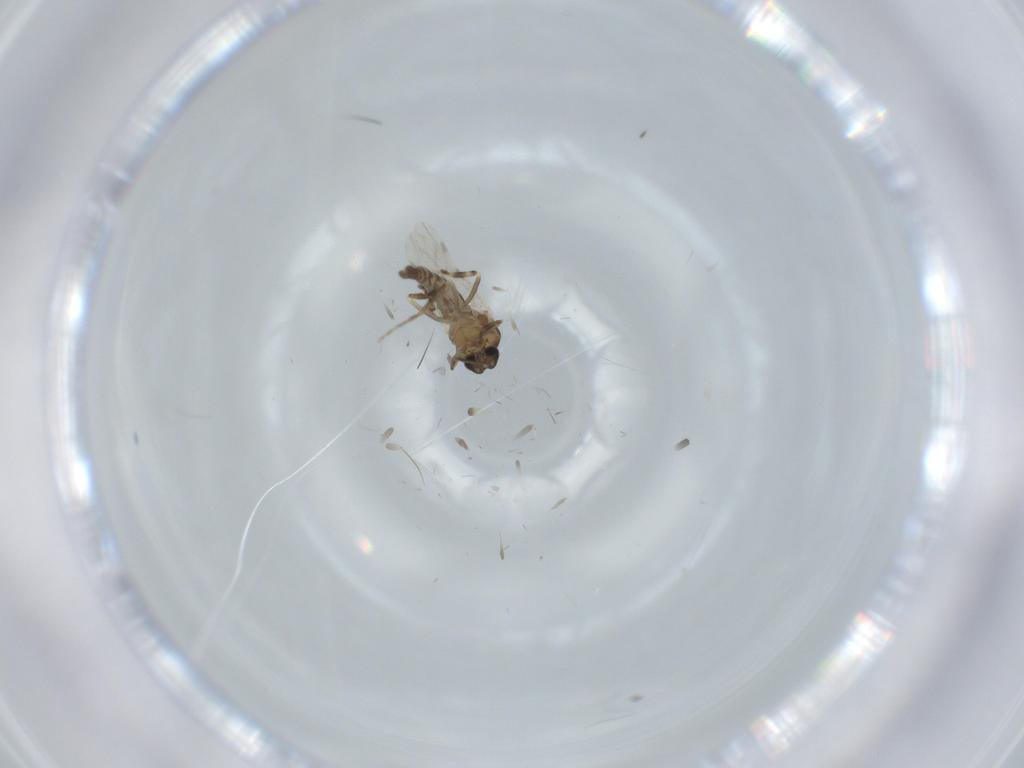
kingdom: Animalia
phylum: Arthropoda
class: Insecta
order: Diptera
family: Ceratopogonidae
